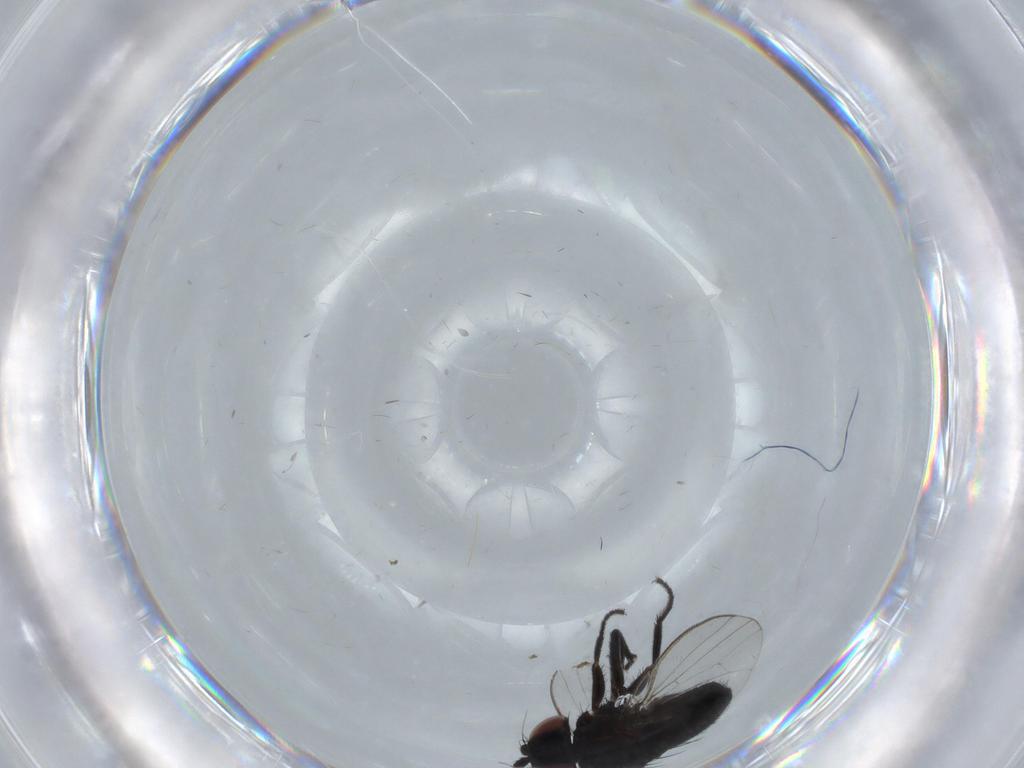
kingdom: Animalia
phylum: Arthropoda
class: Insecta
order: Diptera
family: Milichiidae
